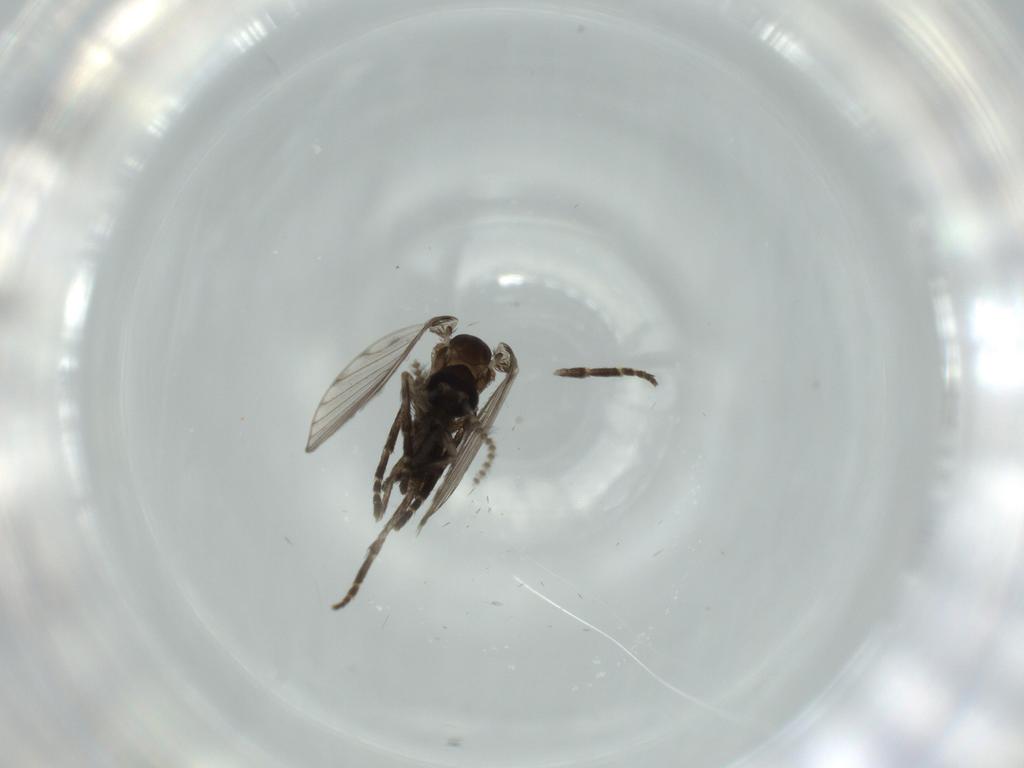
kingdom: Animalia
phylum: Arthropoda
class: Insecta
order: Diptera
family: Psychodidae
